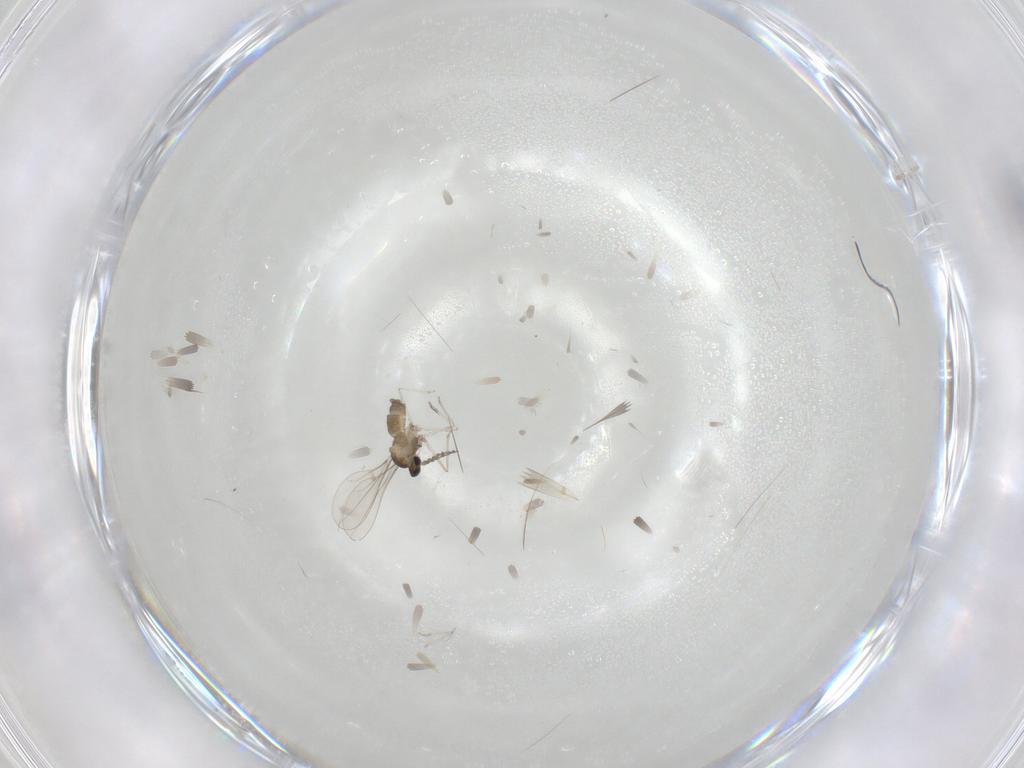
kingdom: Animalia
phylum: Arthropoda
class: Insecta
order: Diptera
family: Cecidomyiidae
